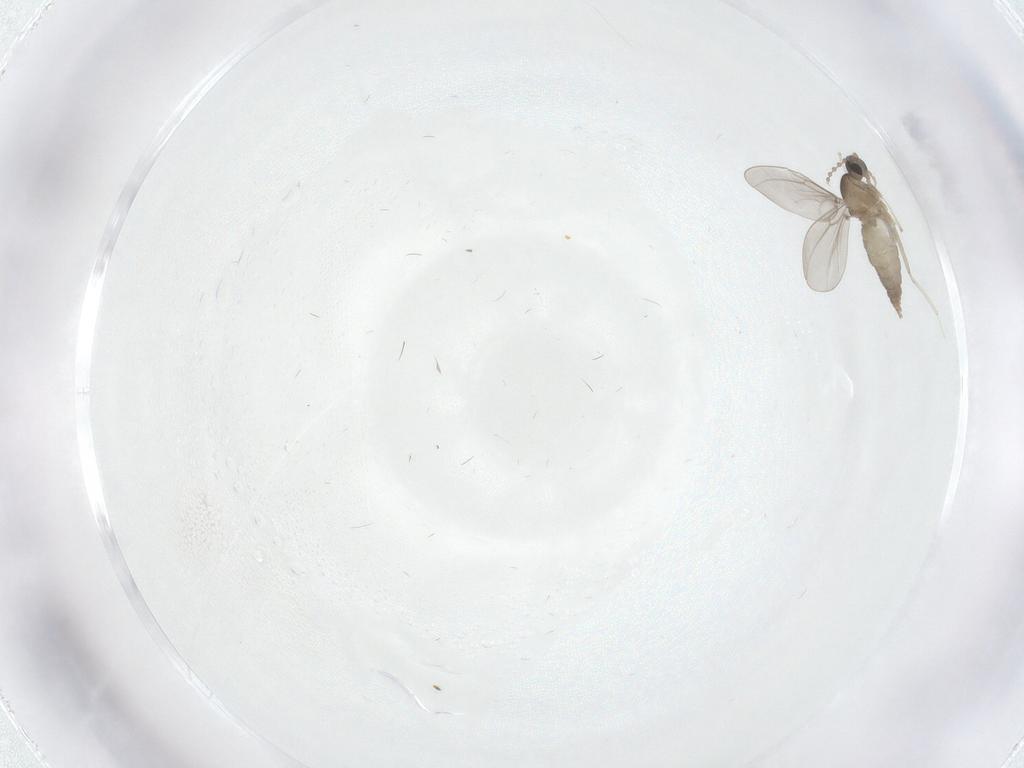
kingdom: Animalia
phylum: Arthropoda
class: Insecta
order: Diptera
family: Cecidomyiidae
